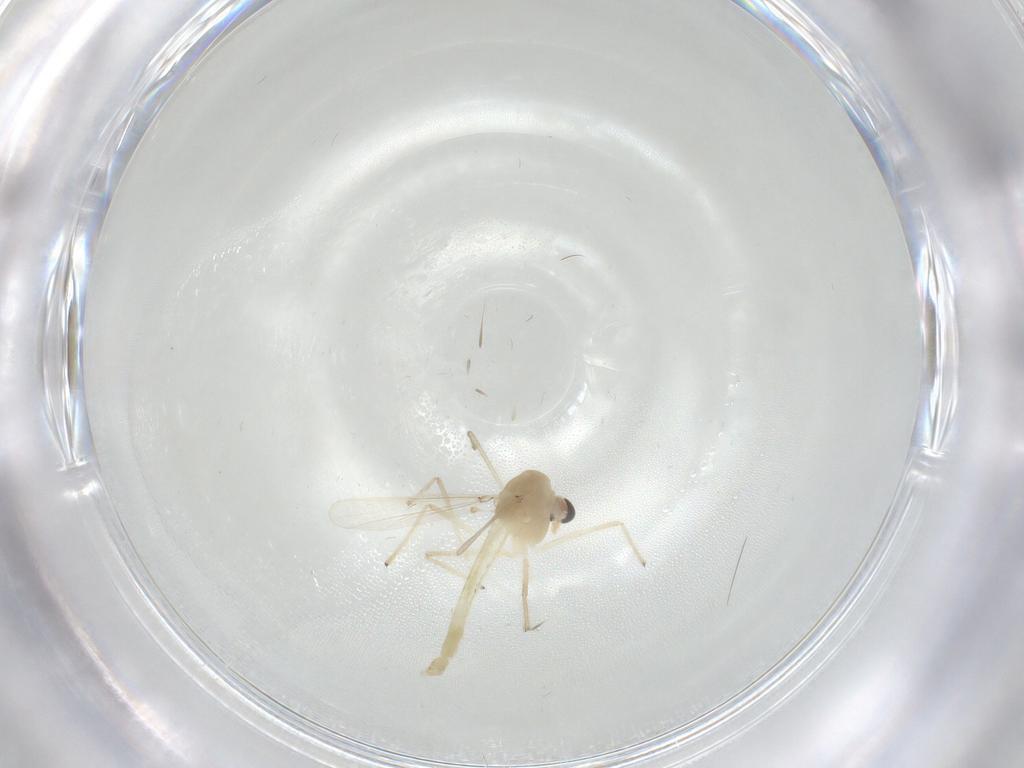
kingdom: Animalia
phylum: Arthropoda
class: Insecta
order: Diptera
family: Chironomidae
